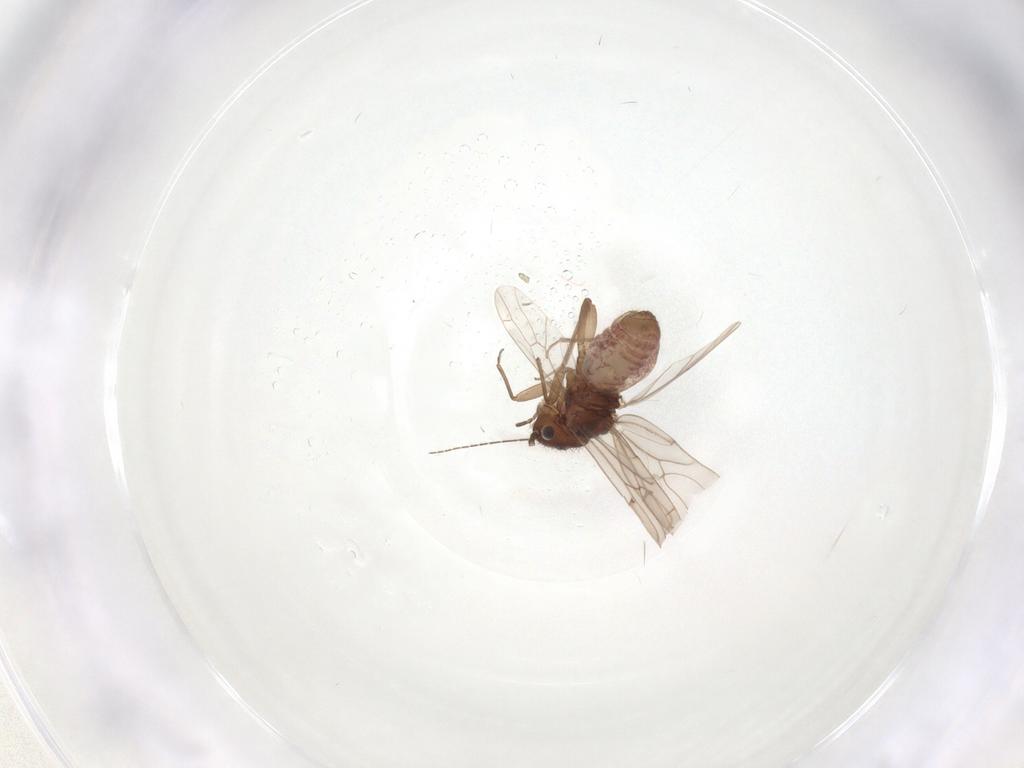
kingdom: Animalia
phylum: Arthropoda
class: Insecta
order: Psocodea
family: Ectopsocidae
